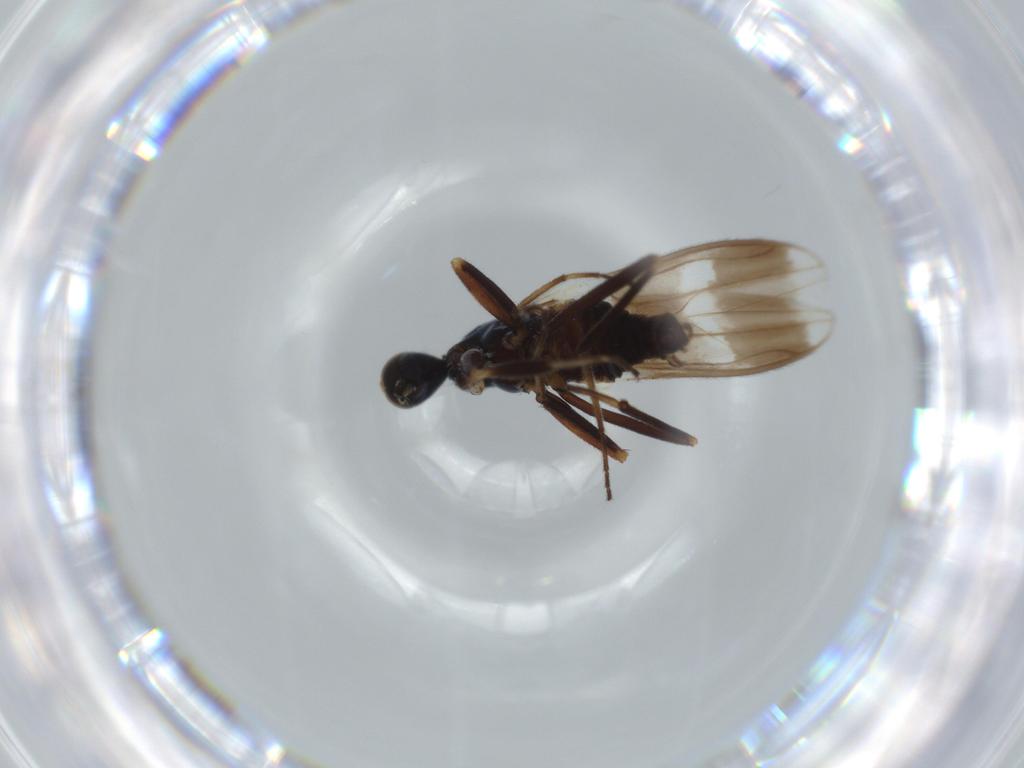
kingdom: Animalia
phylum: Arthropoda
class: Insecta
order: Diptera
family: Hybotidae
